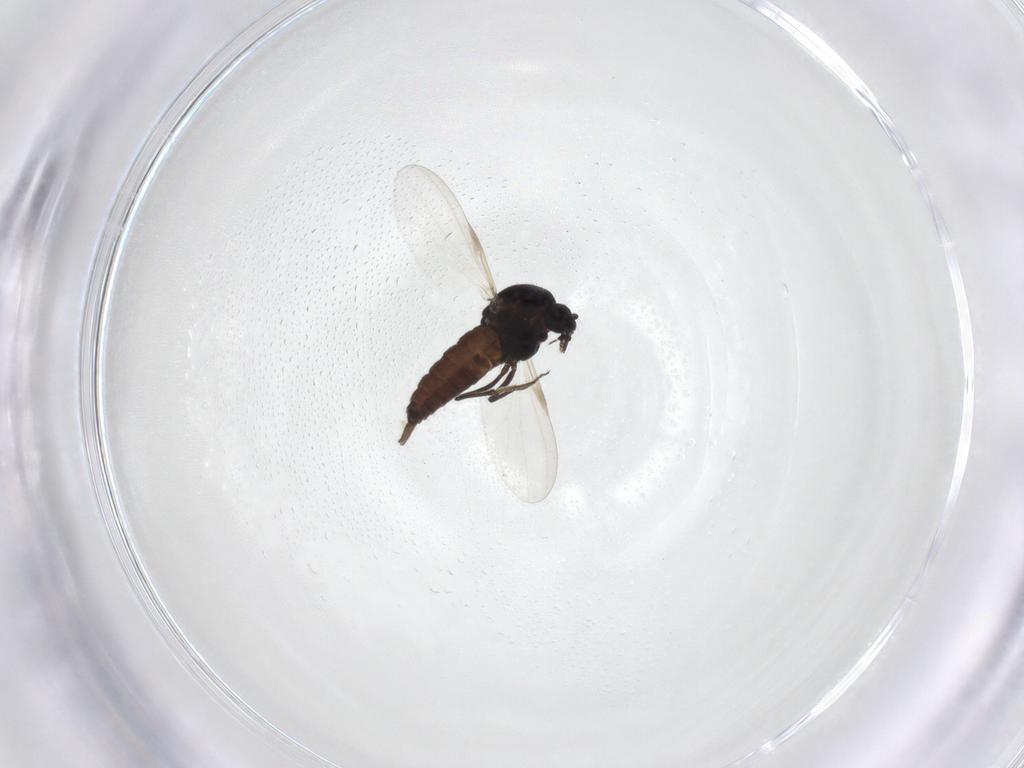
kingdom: Animalia
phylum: Arthropoda
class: Insecta
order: Diptera
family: Ceratopogonidae
